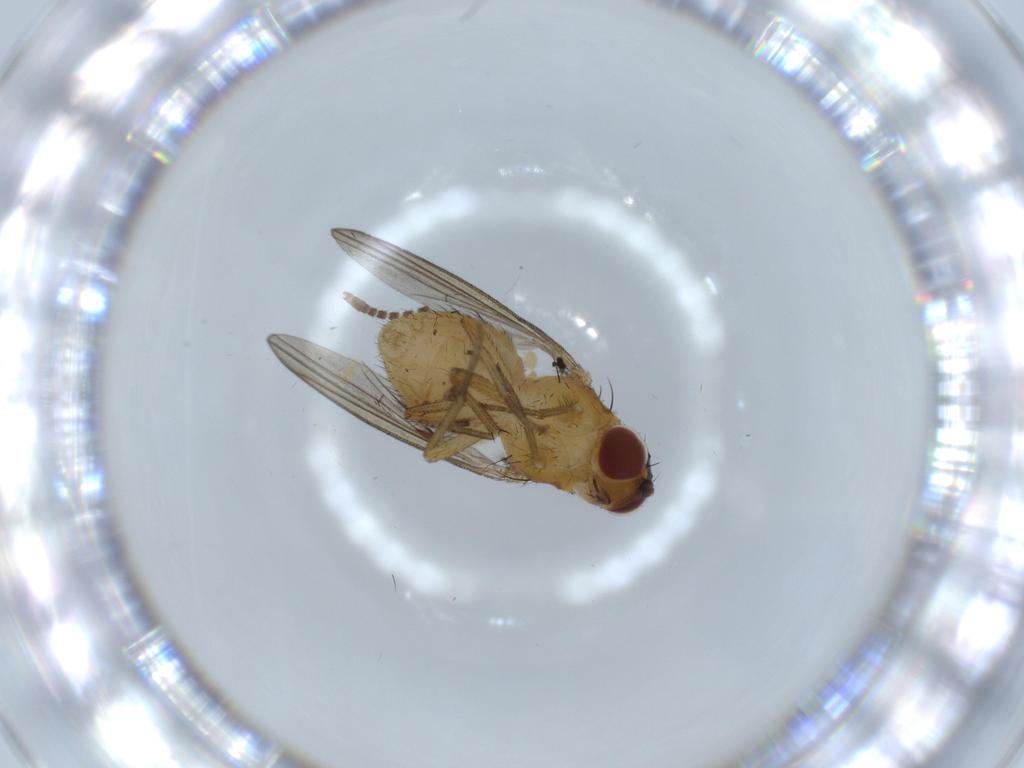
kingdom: Animalia
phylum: Arthropoda
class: Insecta
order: Diptera
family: Lauxaniidae
